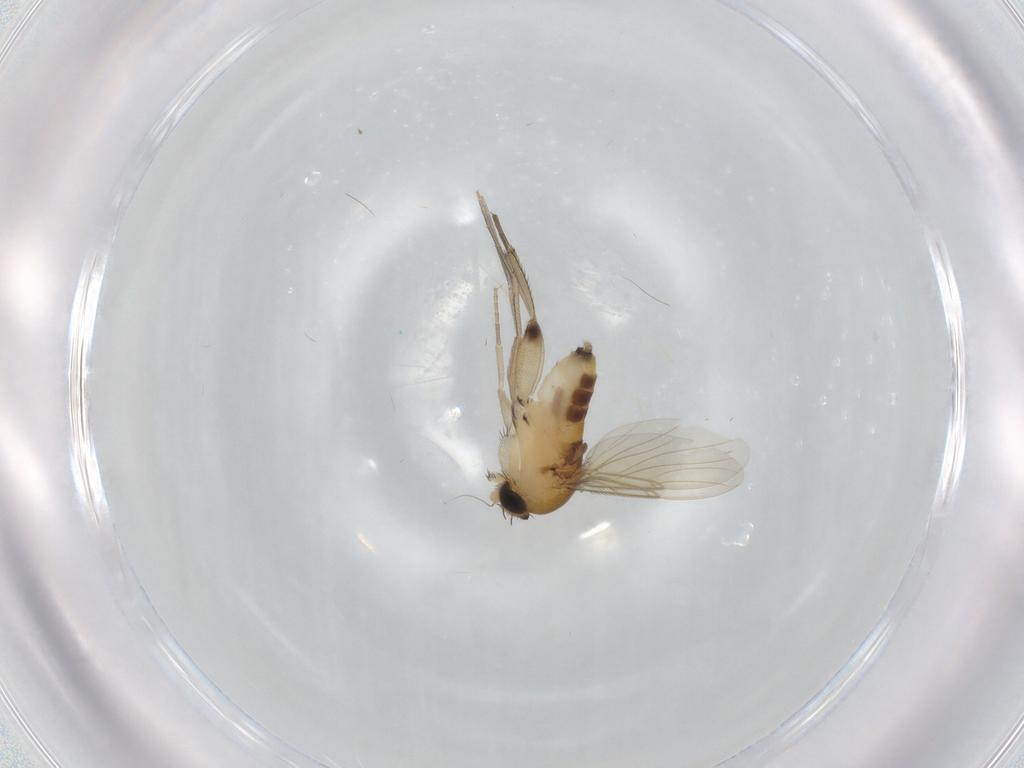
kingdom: Animalia
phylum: Arthropoda
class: Insecta
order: Diptera
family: Phoridae
